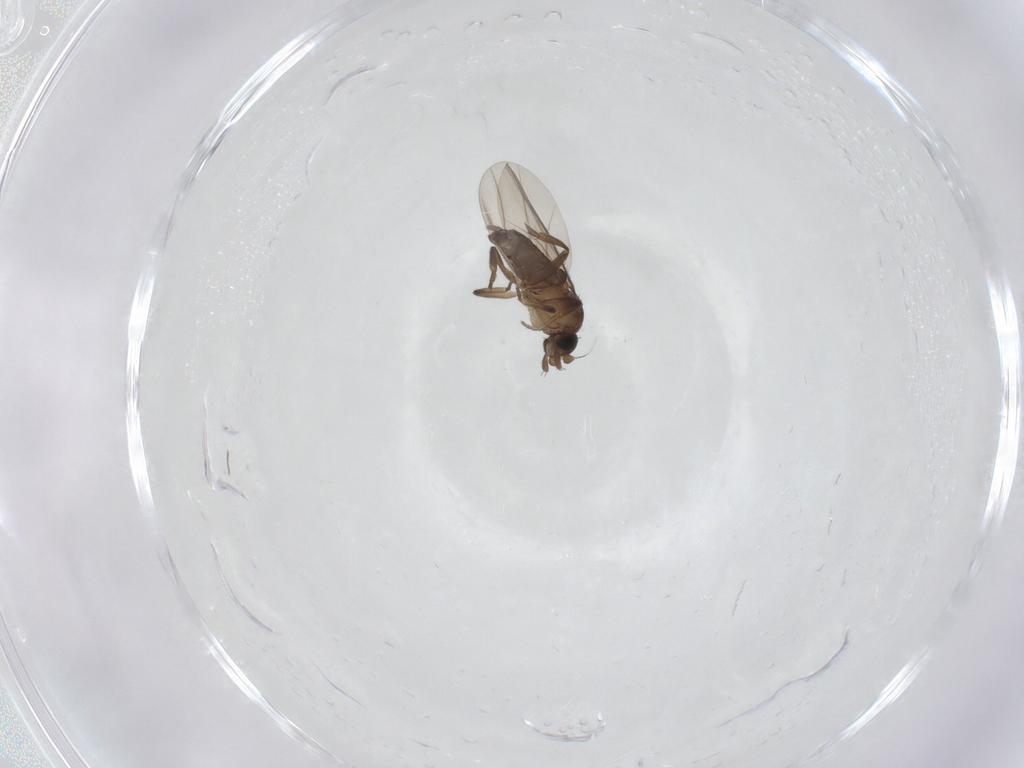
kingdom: Animalia
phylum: Arthropoda
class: Insecta
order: Diptera
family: Phoridae
